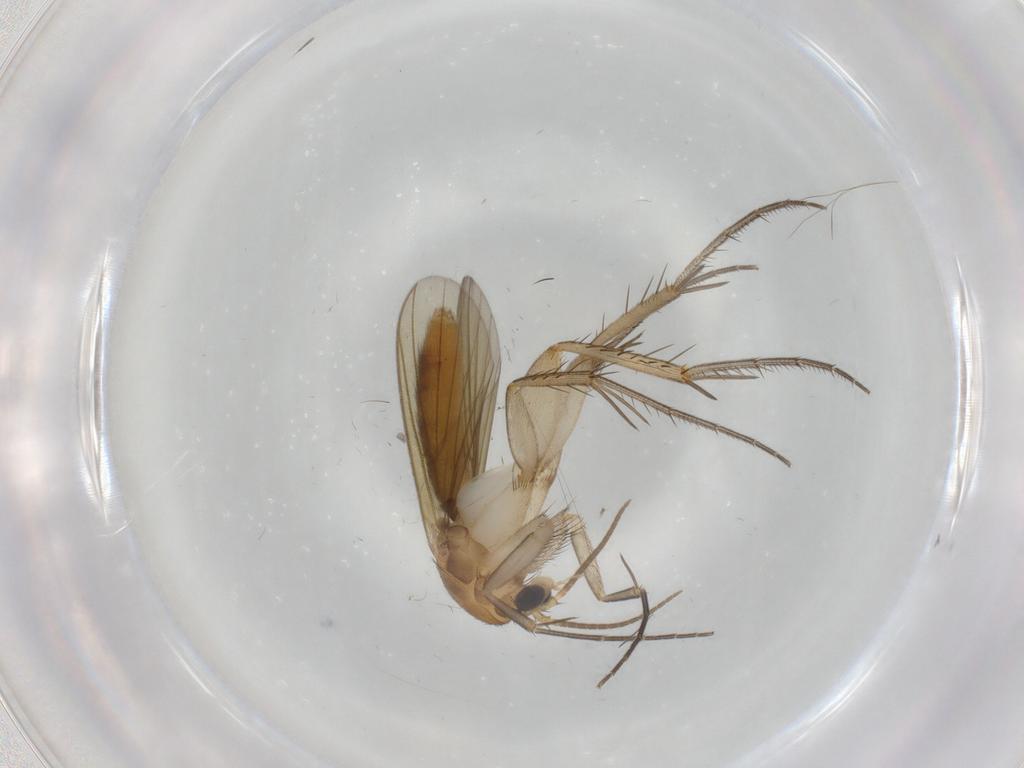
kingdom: Animalia
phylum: Arthropoda
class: Insecta
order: Diptera
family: Mycetophilidae
